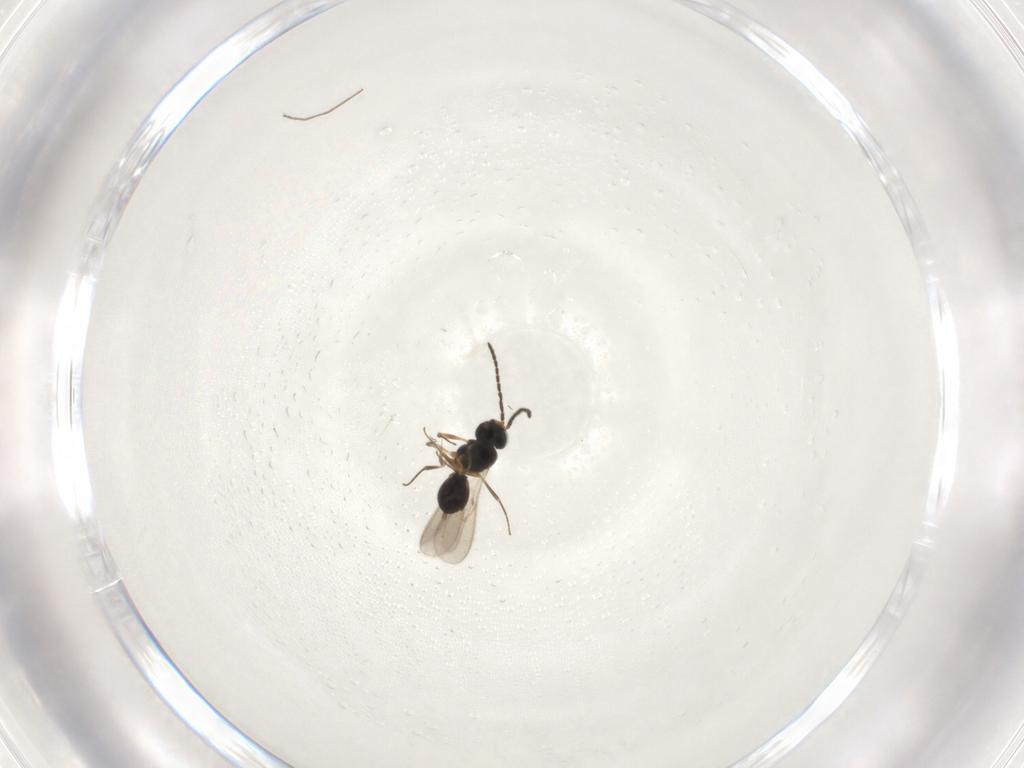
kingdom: Animalia
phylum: Arthropoda
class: Insecta
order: Hymenoptera
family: Scelionidae
